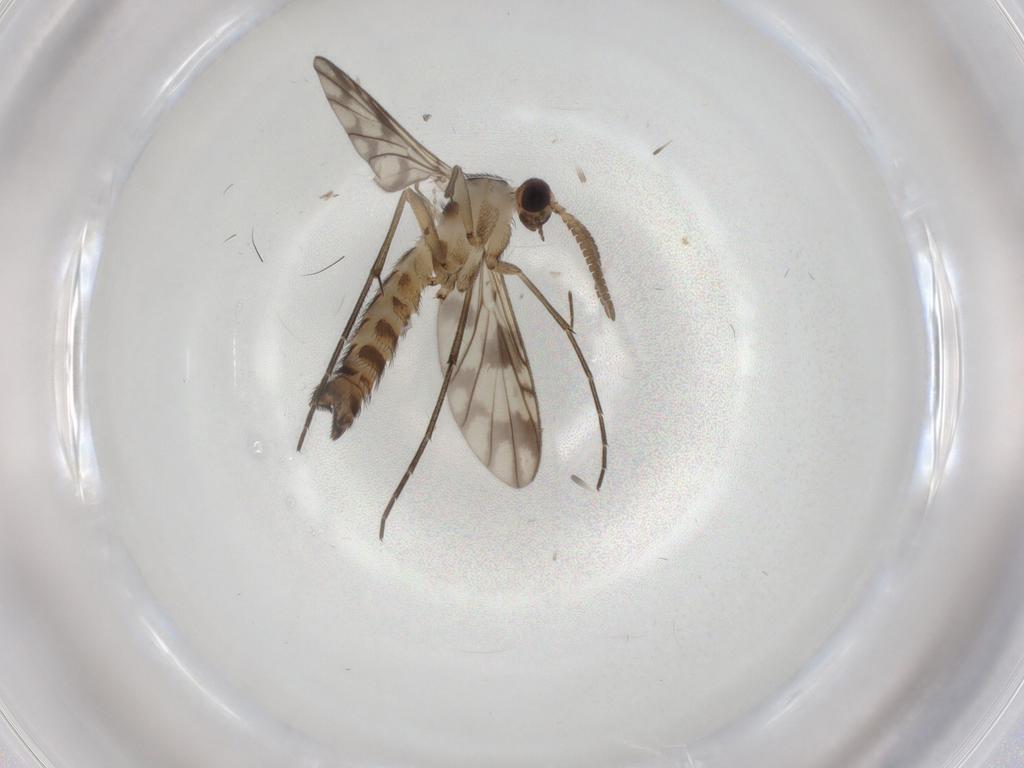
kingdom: Animalia
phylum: Arthropoda
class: Insecta
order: Diptera
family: Keroplatidae
